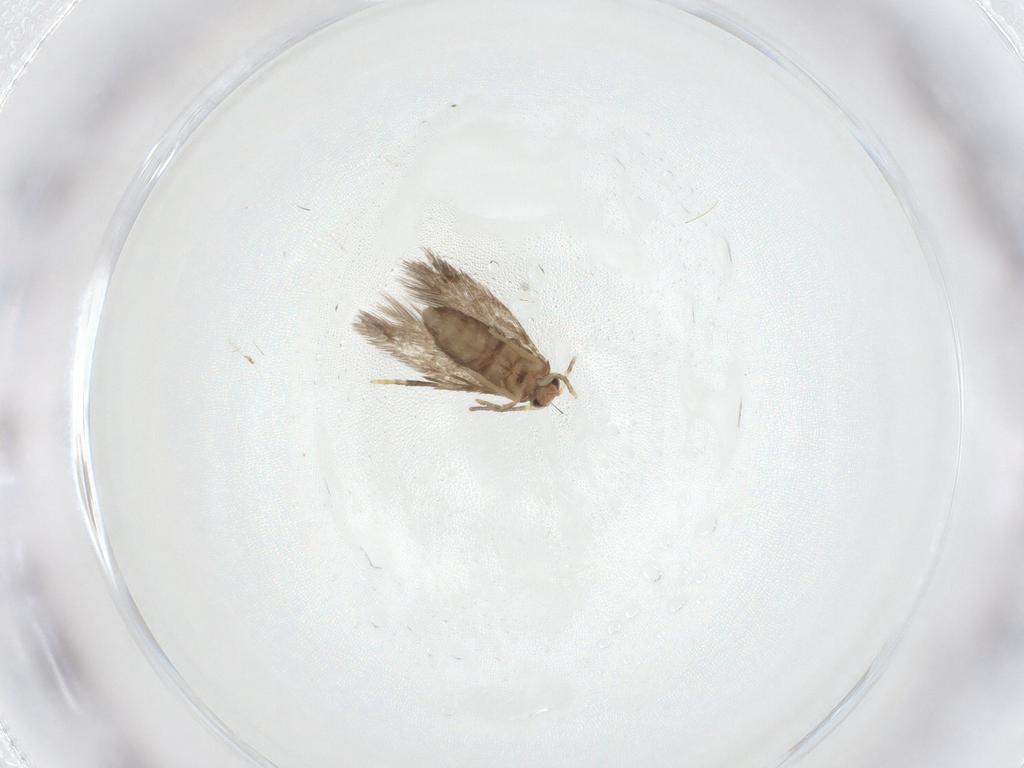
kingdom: Animalia
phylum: Arthropoda
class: Insecta
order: Lepidoptera
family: Nepticulidae
